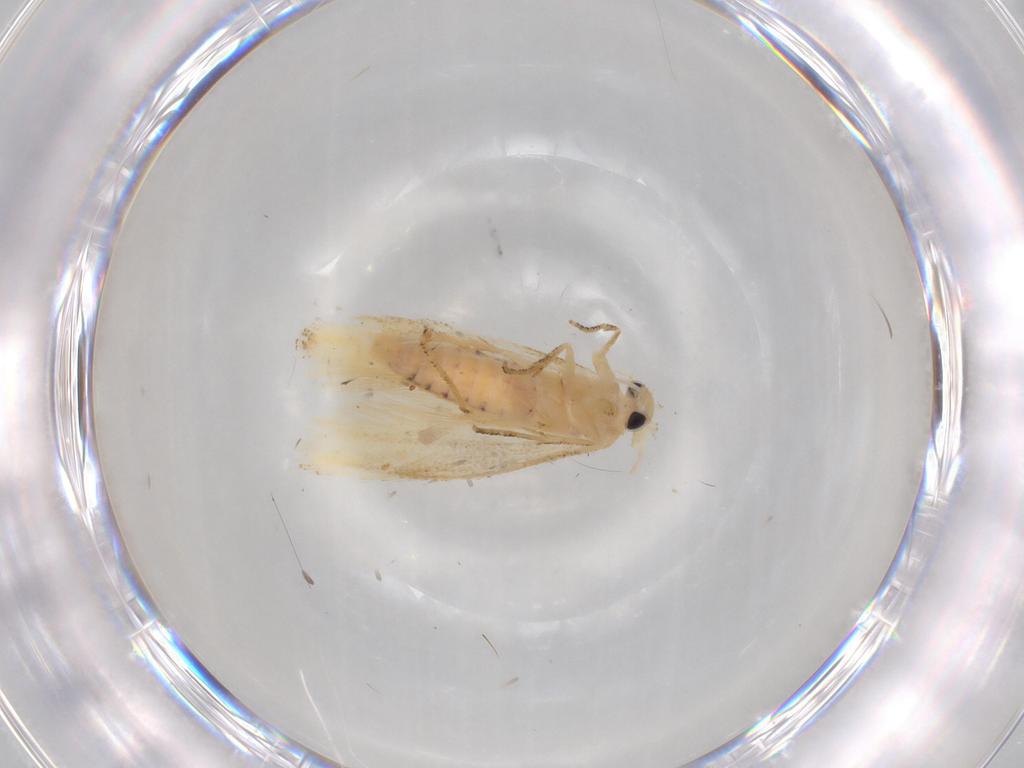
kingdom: Animalia
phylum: Arthropoda
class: Insecta
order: Lepidoptera
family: Bucculatricidae
